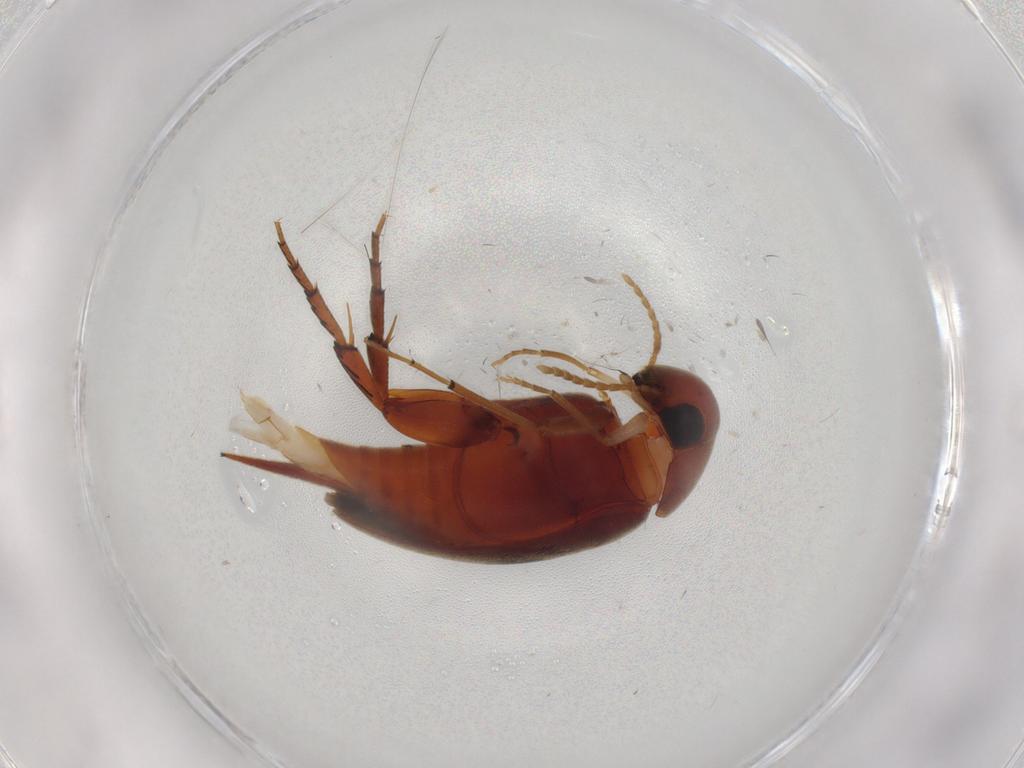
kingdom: Animalia
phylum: Arthropoda
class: Insecta
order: Coleoptera
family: Mordellidae
